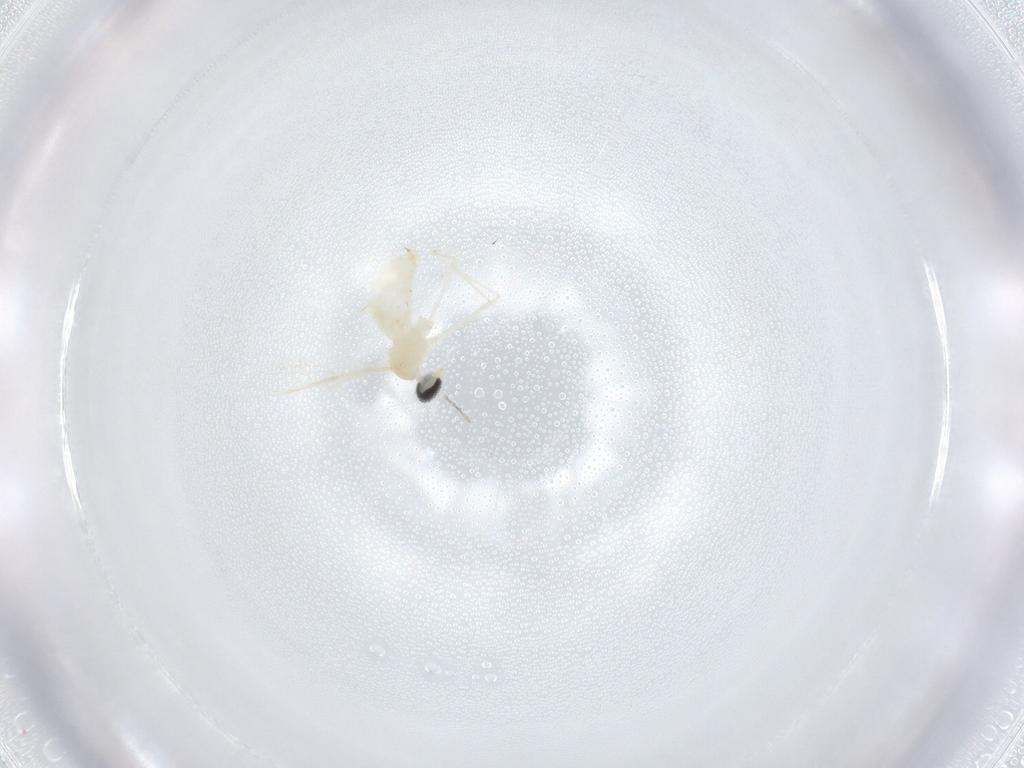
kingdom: Animalia
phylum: Arthropoda
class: Insecta
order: Diptera
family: Cecidomyiidae
